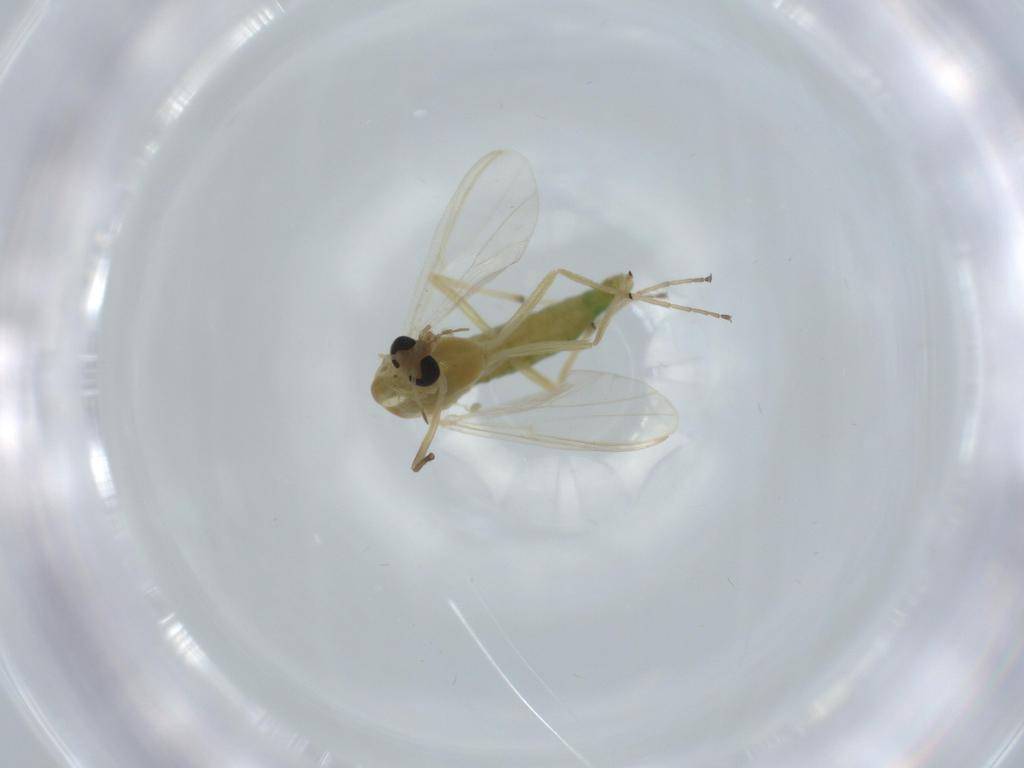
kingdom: Animalia
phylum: Arthropoda
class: Insecta
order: Diptera
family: Chironomidae
